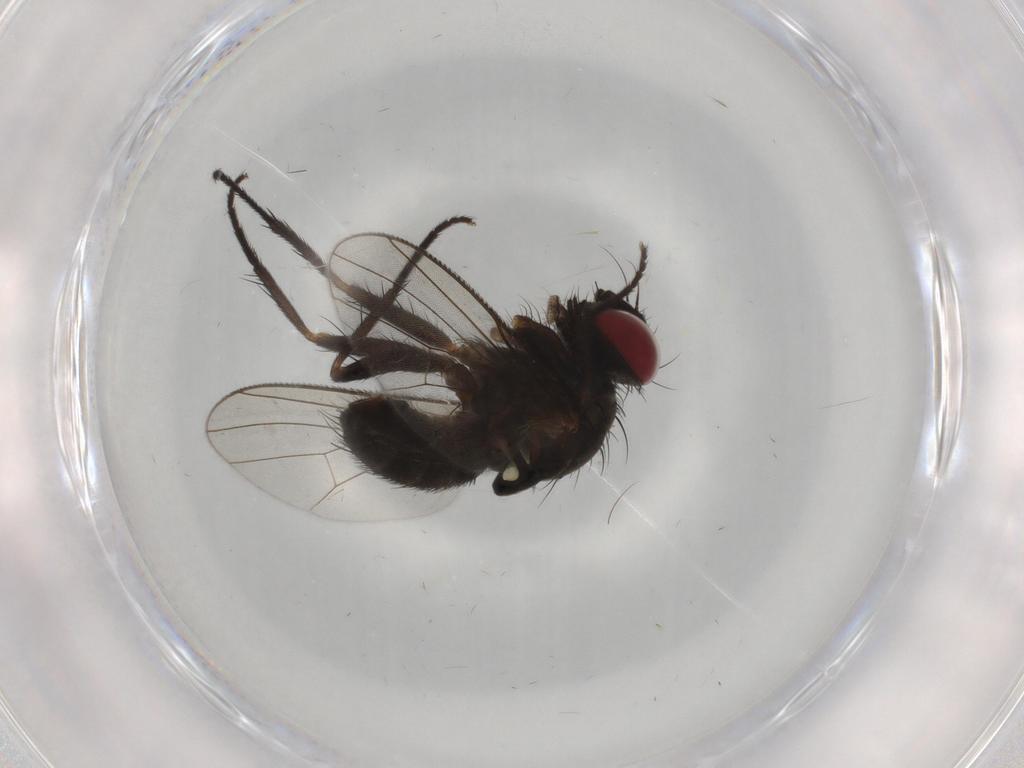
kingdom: Animalia
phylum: Arthropoda
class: Insecta
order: Diptera
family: Muscidae
